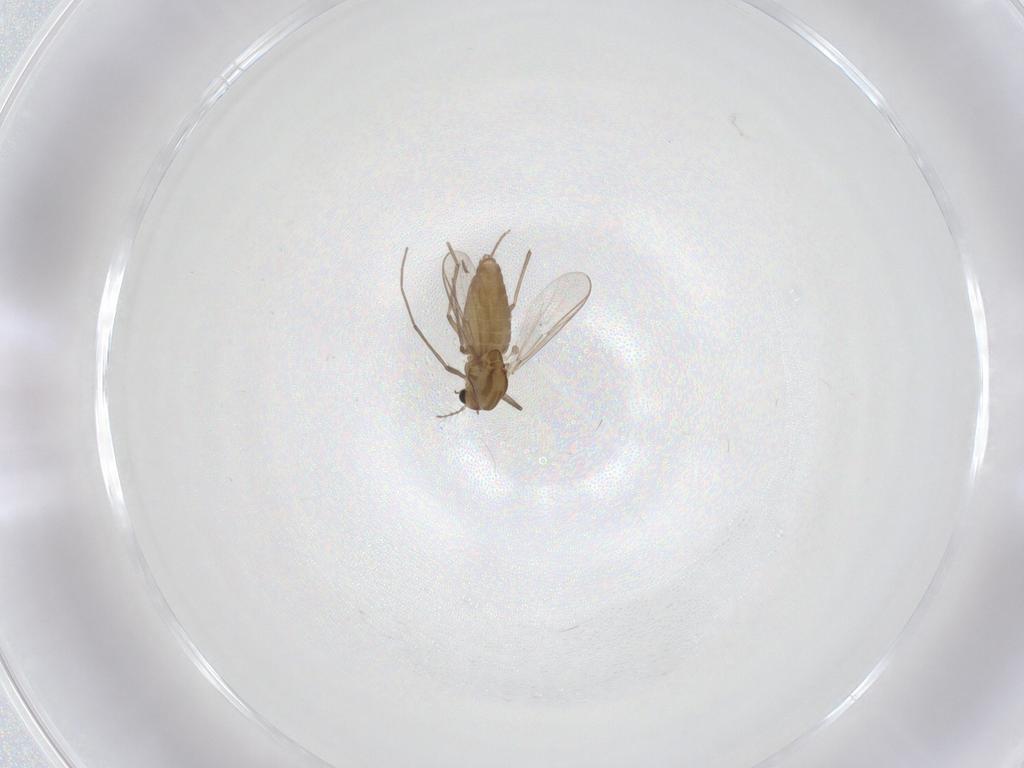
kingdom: Animalia
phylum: Arthropoda
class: Insecta
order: Diptera
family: Chironomidae
